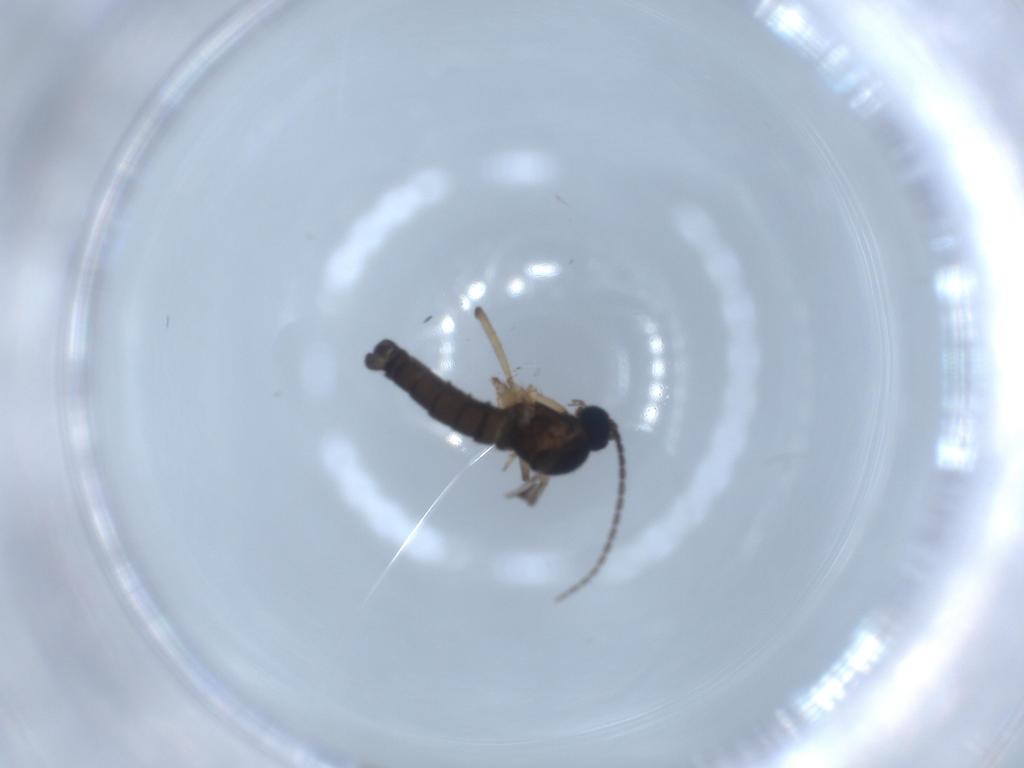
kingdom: Animalia
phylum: Arthropoda
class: Insecta
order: Diptera
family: Sciaridae
